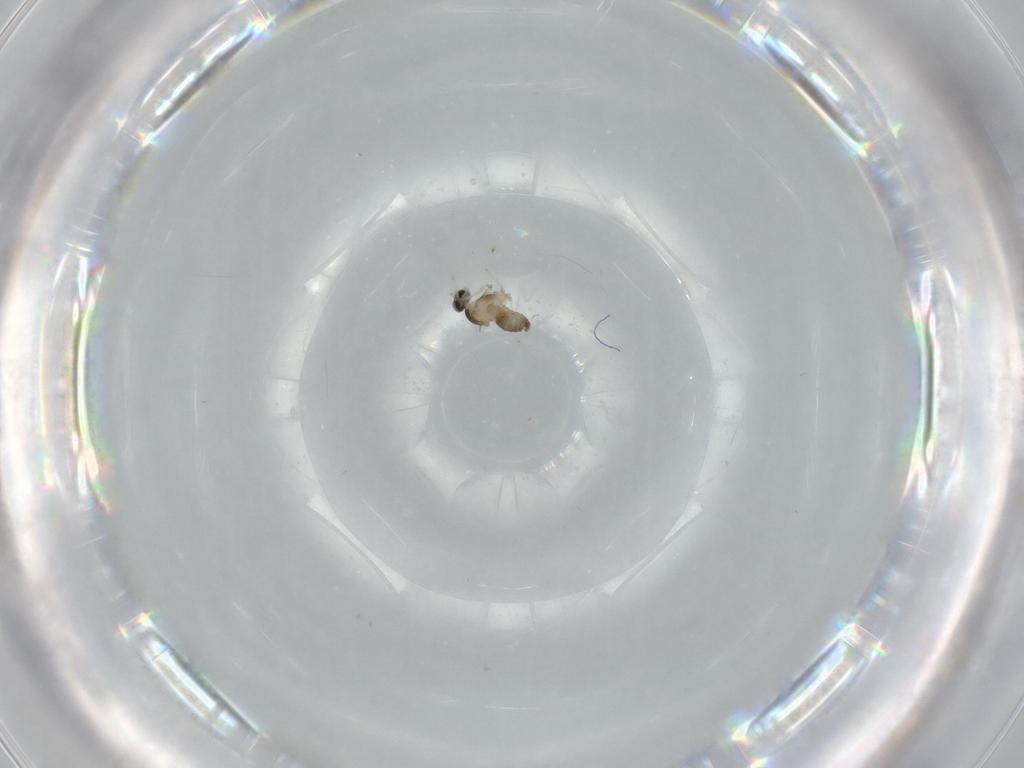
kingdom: Animalia
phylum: Arthropoda
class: Insecta
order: Diptera
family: Cecidomyiidae
